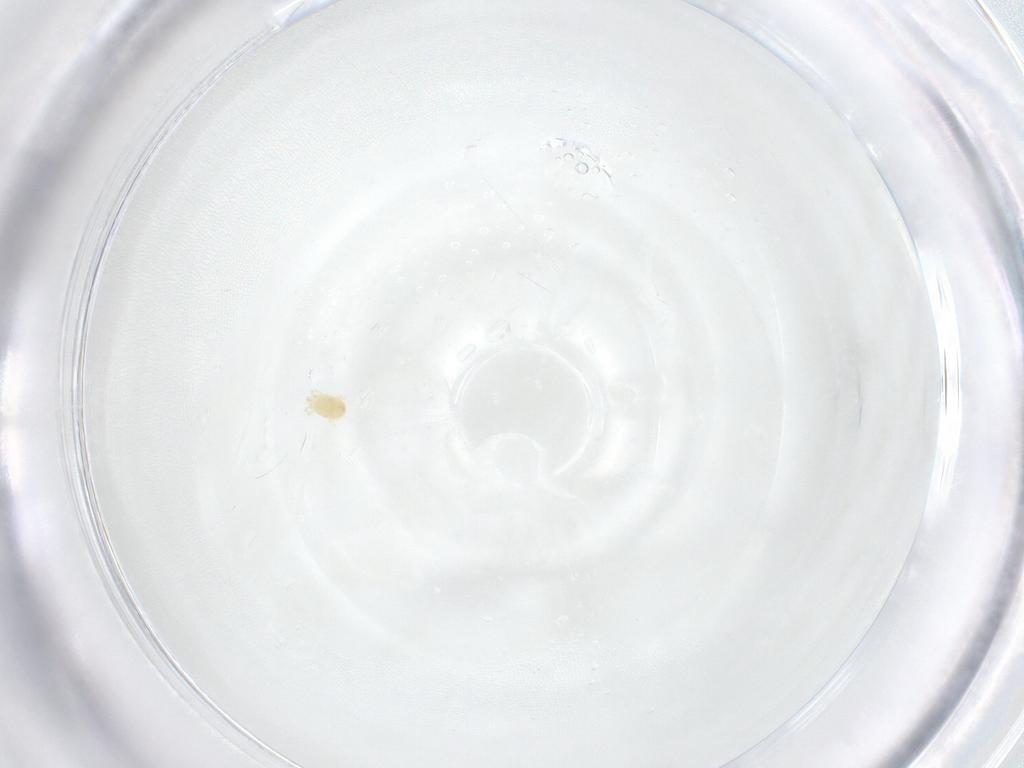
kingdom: Animalia
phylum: Arthropoda
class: Arachnida
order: Trombidiformes
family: Tetranychidae
